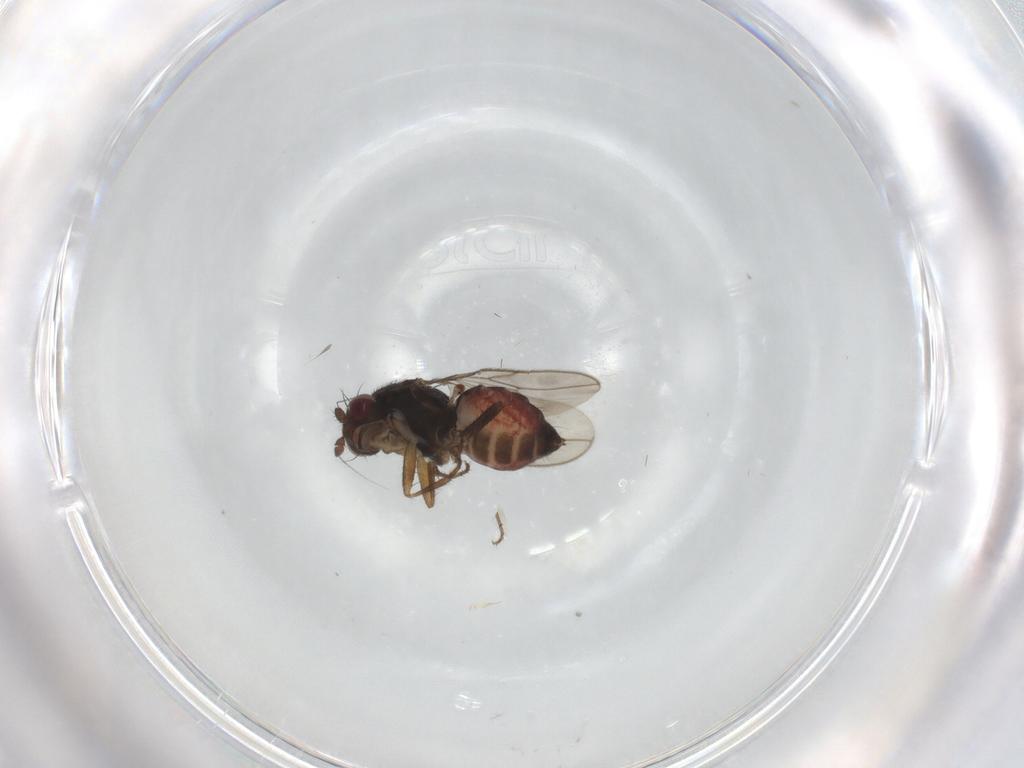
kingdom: Animalia
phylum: Arthropoda
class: Insecta
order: Diptera
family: Sphaeroceridae
